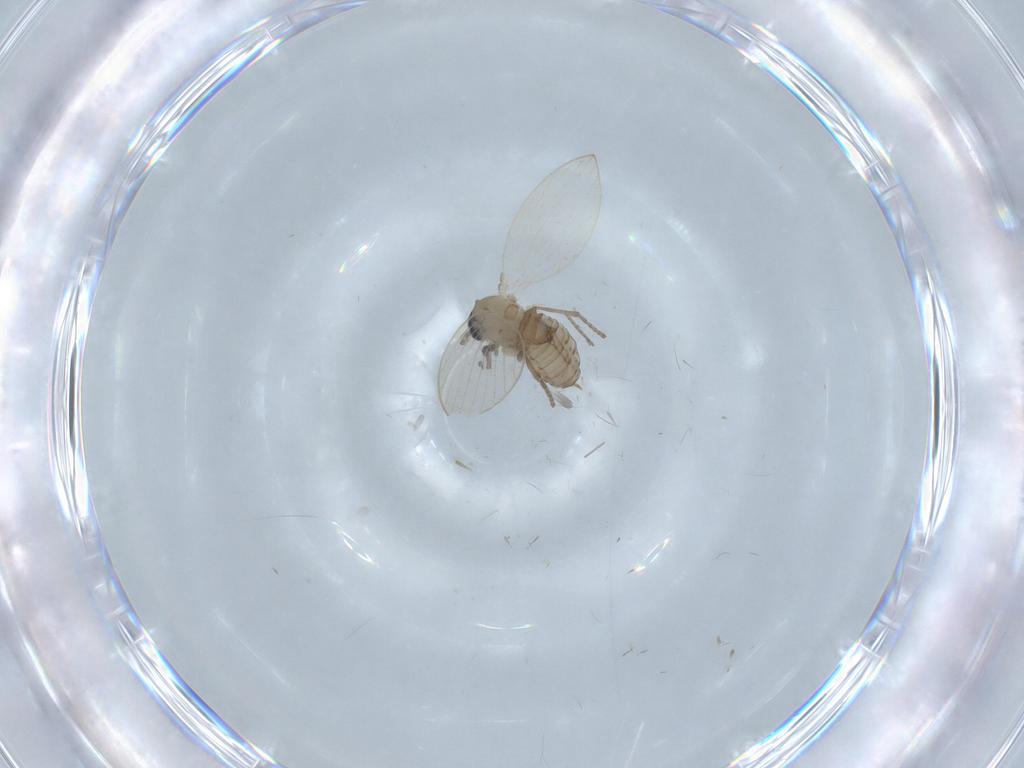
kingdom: Animalia
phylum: Arthropoda
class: Insecta
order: Diptera
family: Psychodidae
